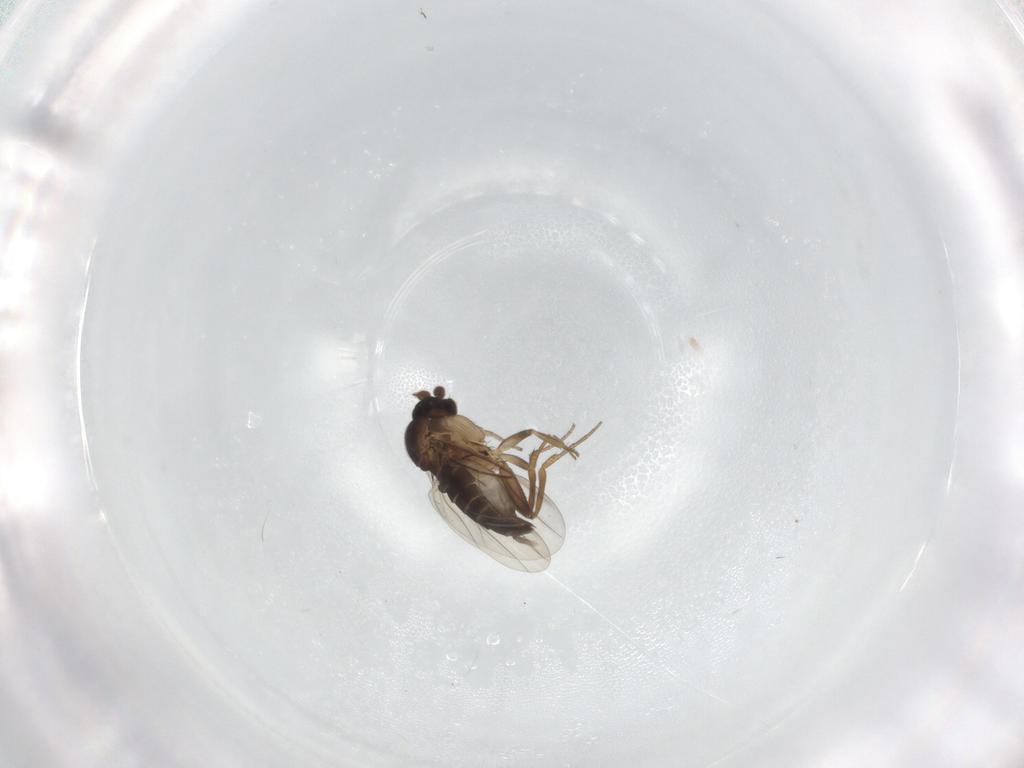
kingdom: Animalia
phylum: Arthropoda
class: Insecta
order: Diptera
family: Phoridae
